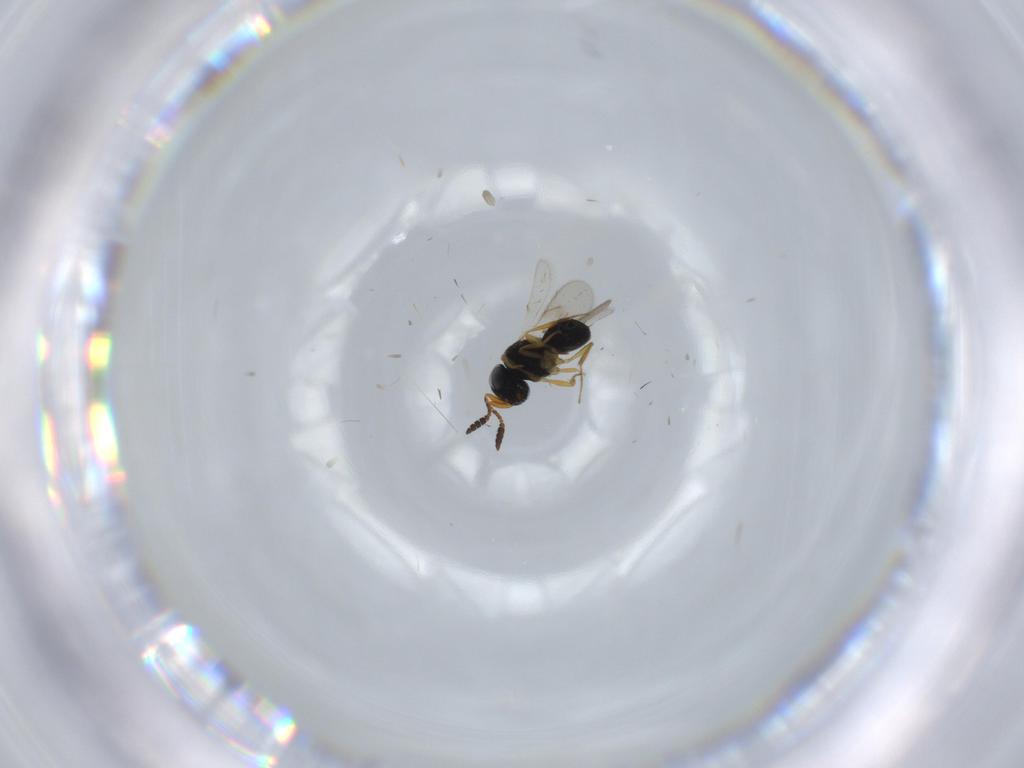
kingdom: Animalia
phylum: Arthropoda
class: Insecta
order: Hymenoptera
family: Scelionidae
